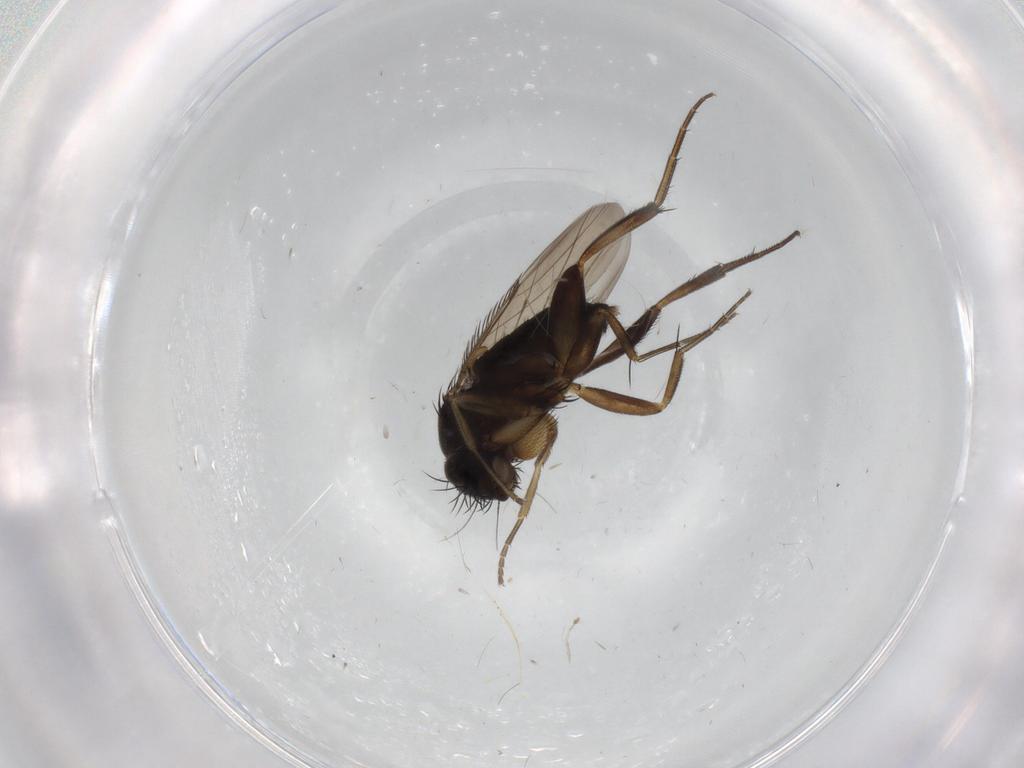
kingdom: Animalia
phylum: Arthropoda
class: Insecta
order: Diptera
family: Phoridae
